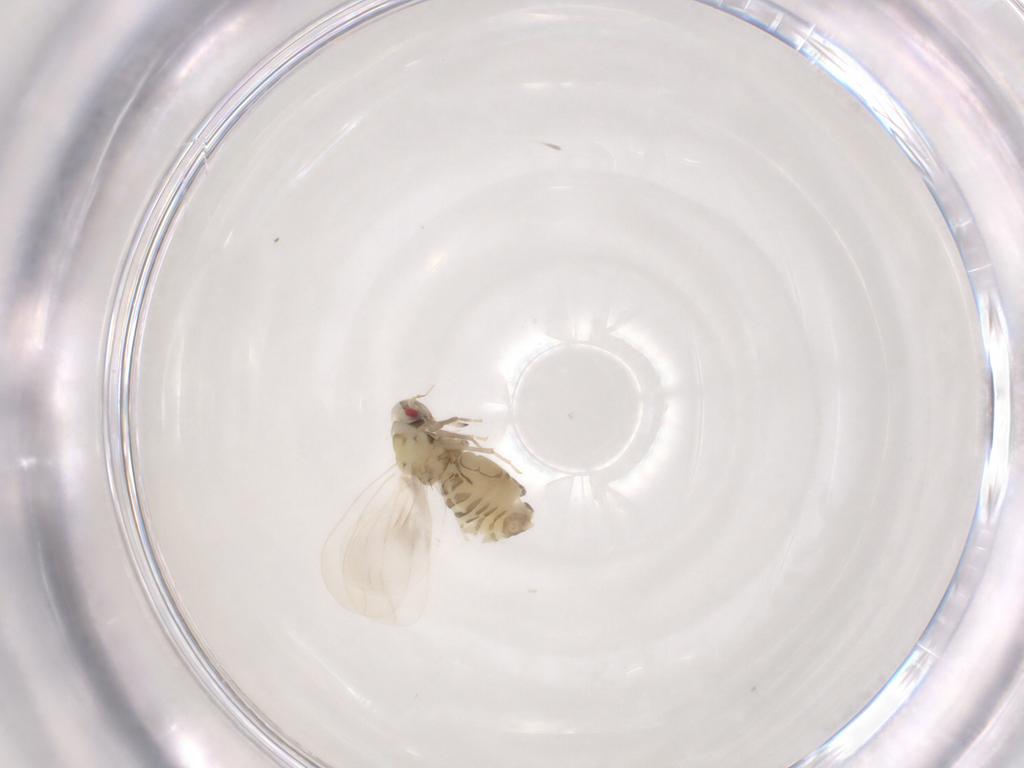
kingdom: Animalia
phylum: Arthropoda
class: Insecta
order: Hemiptera
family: Aleyrodidae
